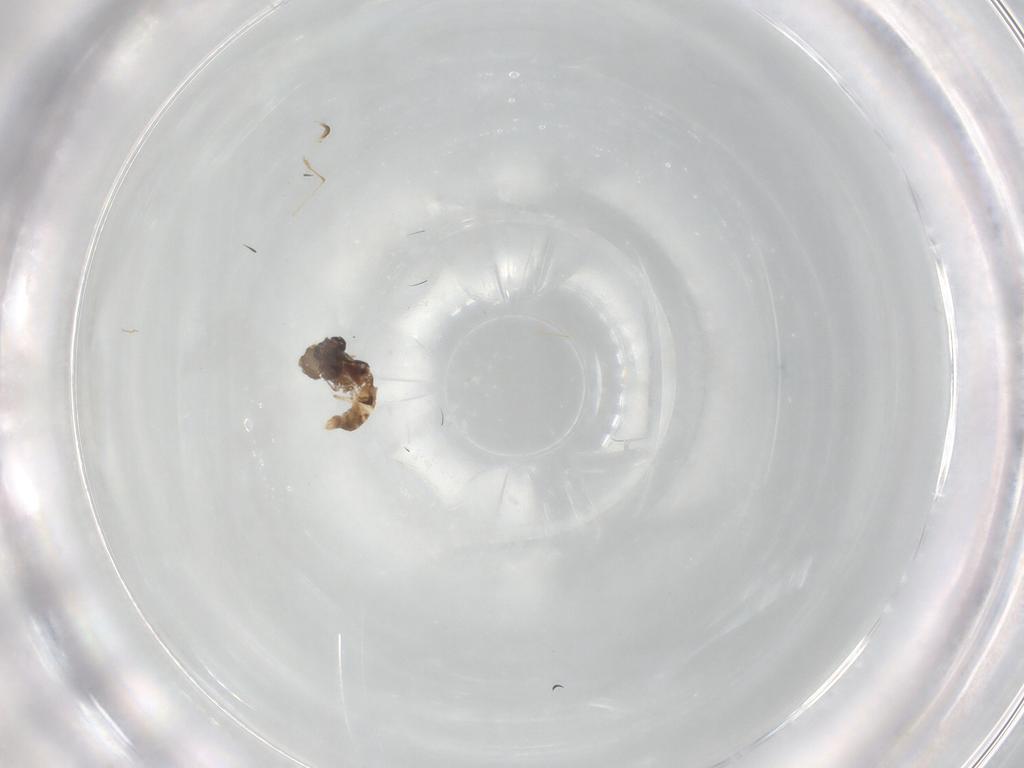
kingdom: Animalia
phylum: Arthropoda
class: Insecta
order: Diptera
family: Tabanidae
